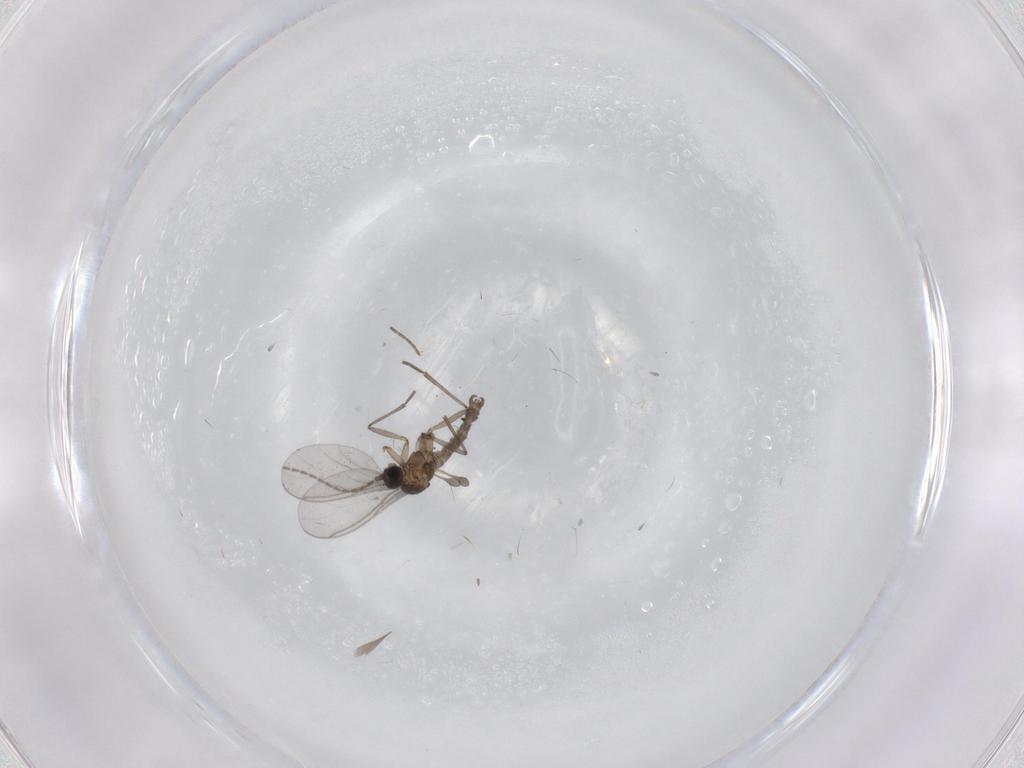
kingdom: Animalia
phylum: Arthropoda
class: Insecta
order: Diptera
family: Sciaridae
